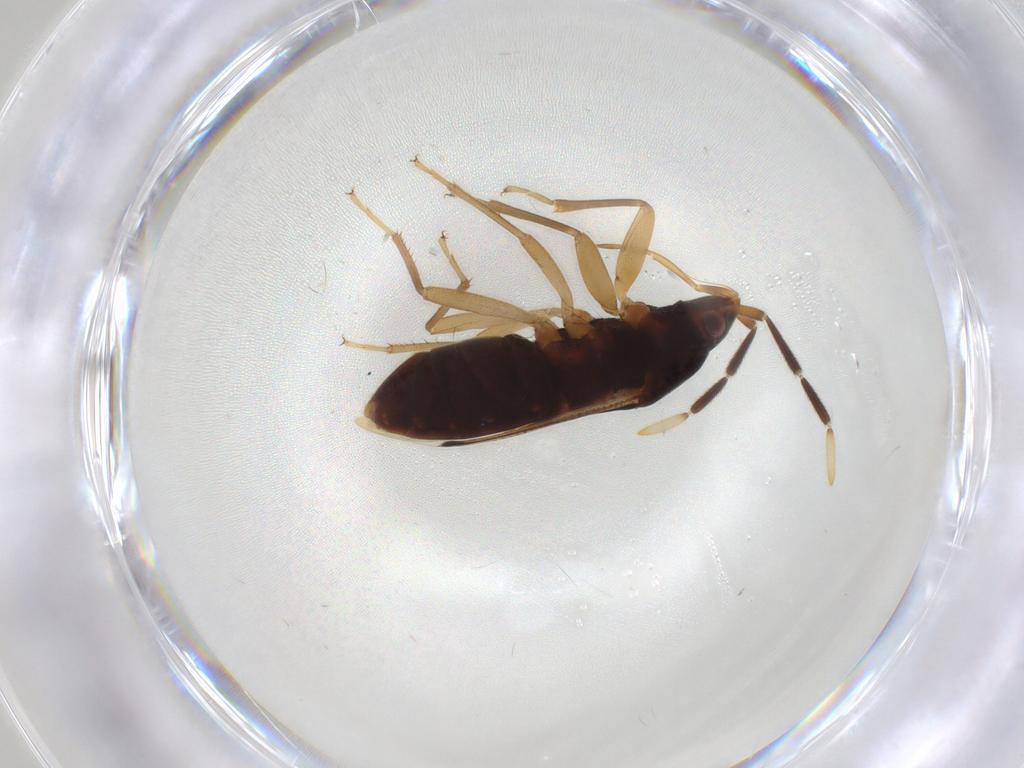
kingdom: Animalia
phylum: Arthropoda
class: Insecta
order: Hemiptera
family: Rhyparochromidae
